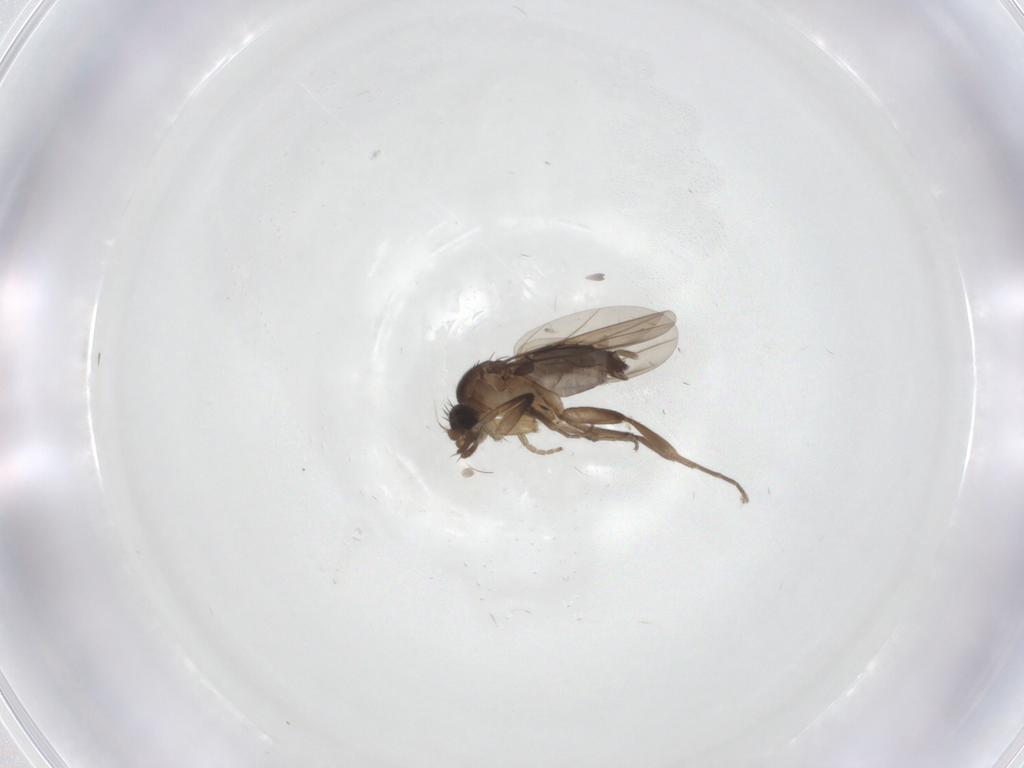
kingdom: Animalia
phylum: Arthropoda
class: Insecta
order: Diptera
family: Phoridae
